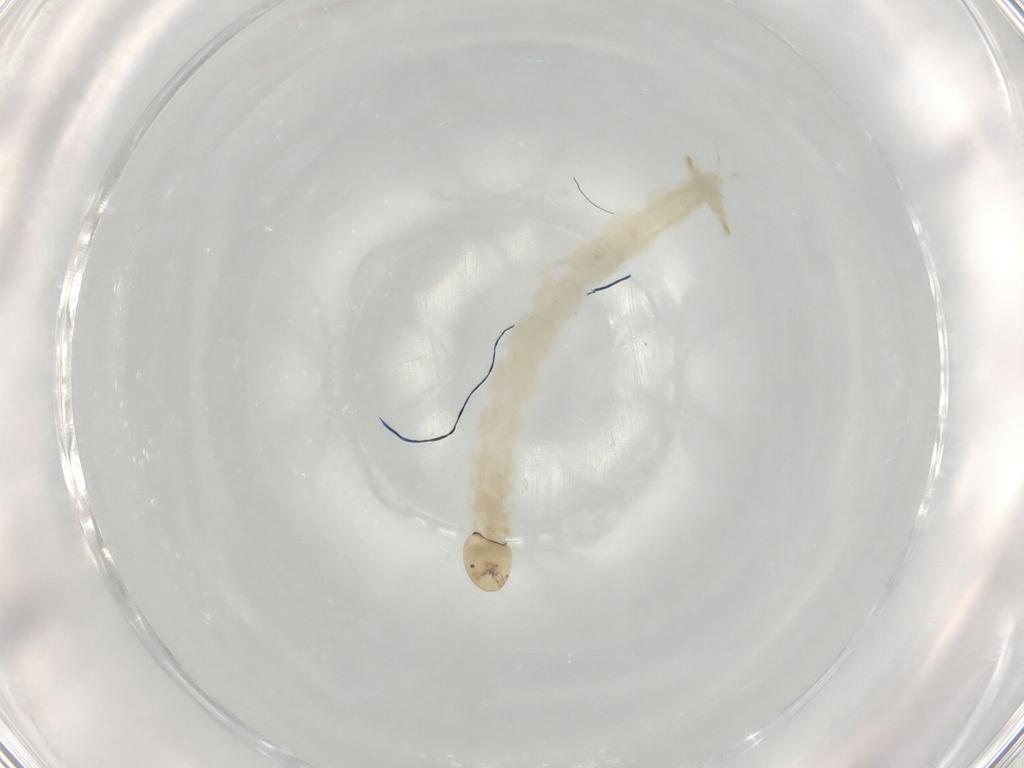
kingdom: Animalia
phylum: Arthropoda
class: Insecta
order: Diptera
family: Chironomidae
